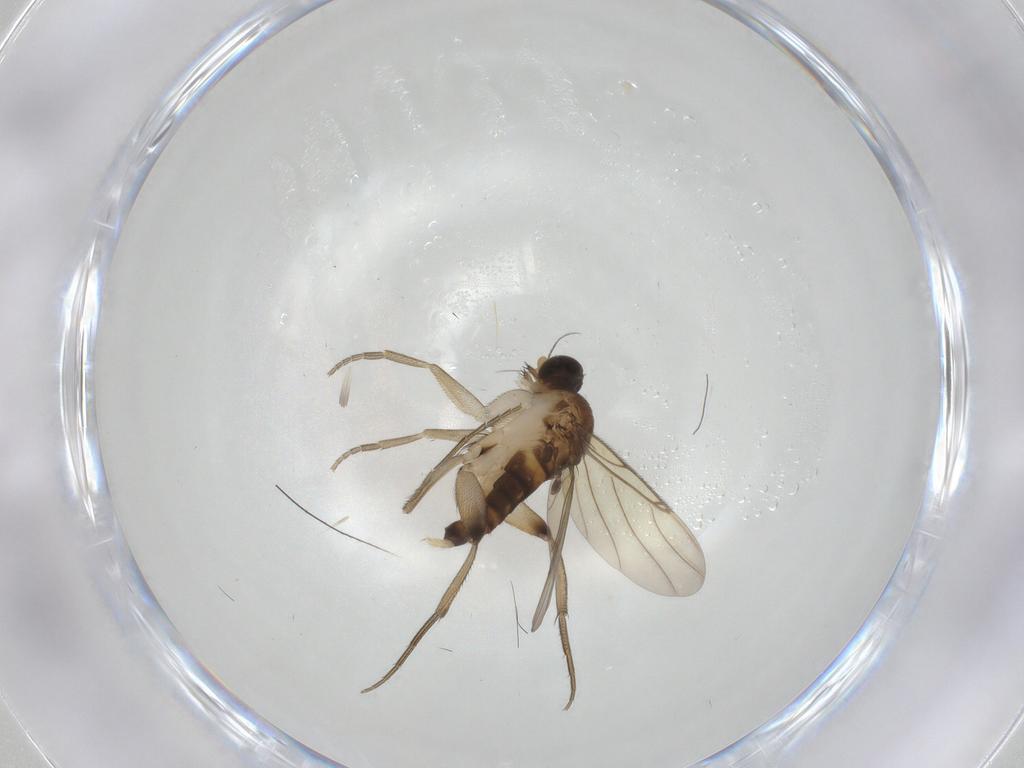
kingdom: Animalia
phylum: Arthropoda
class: Insecta
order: Diptera
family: Phoridae
